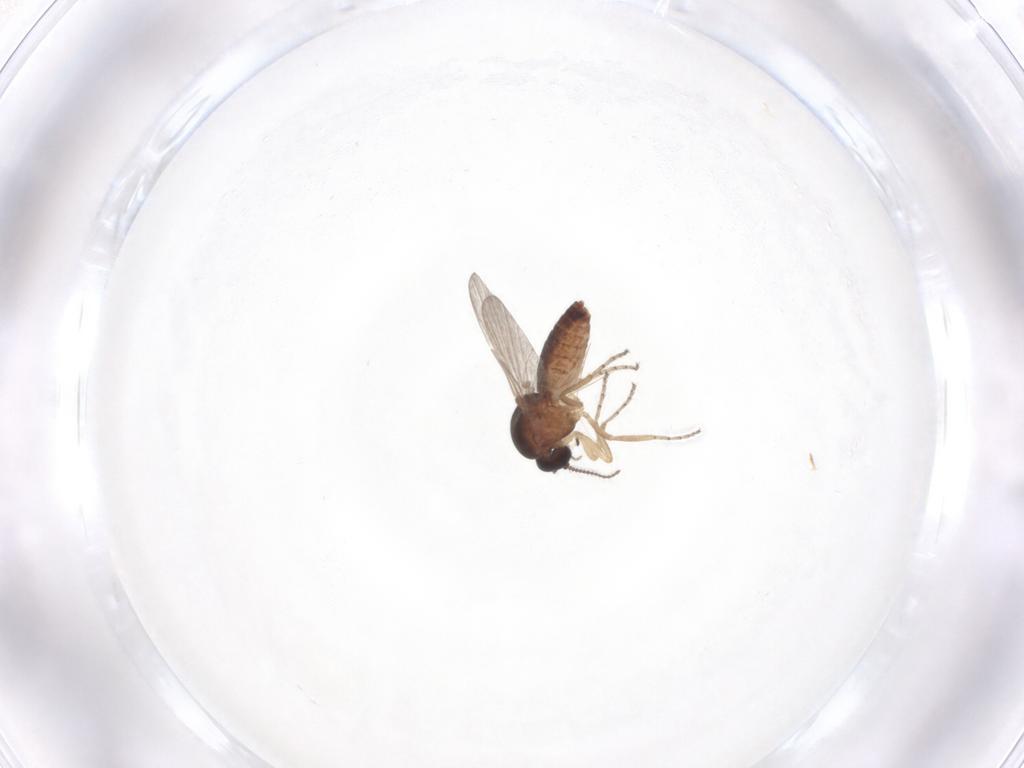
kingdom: Animalia
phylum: Arthropoda
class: Insecta
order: Diptera
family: Ceratopogonidae
